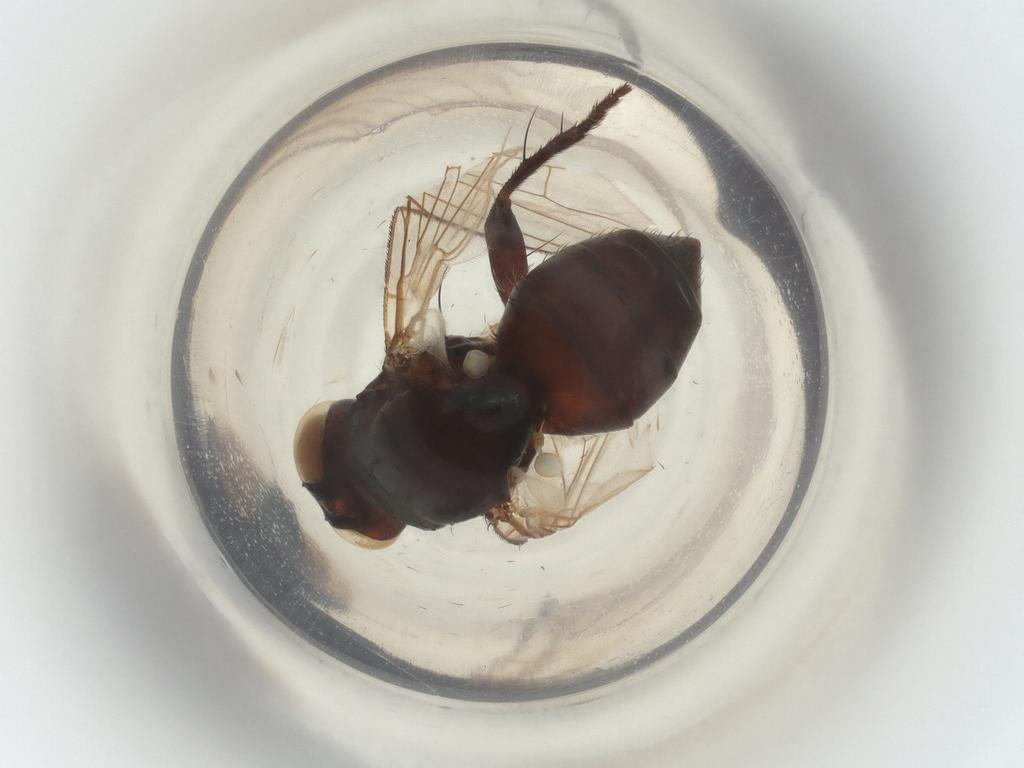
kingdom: Animalia
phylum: Arthropoda
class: Insecta
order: Diptera
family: Muscidae
